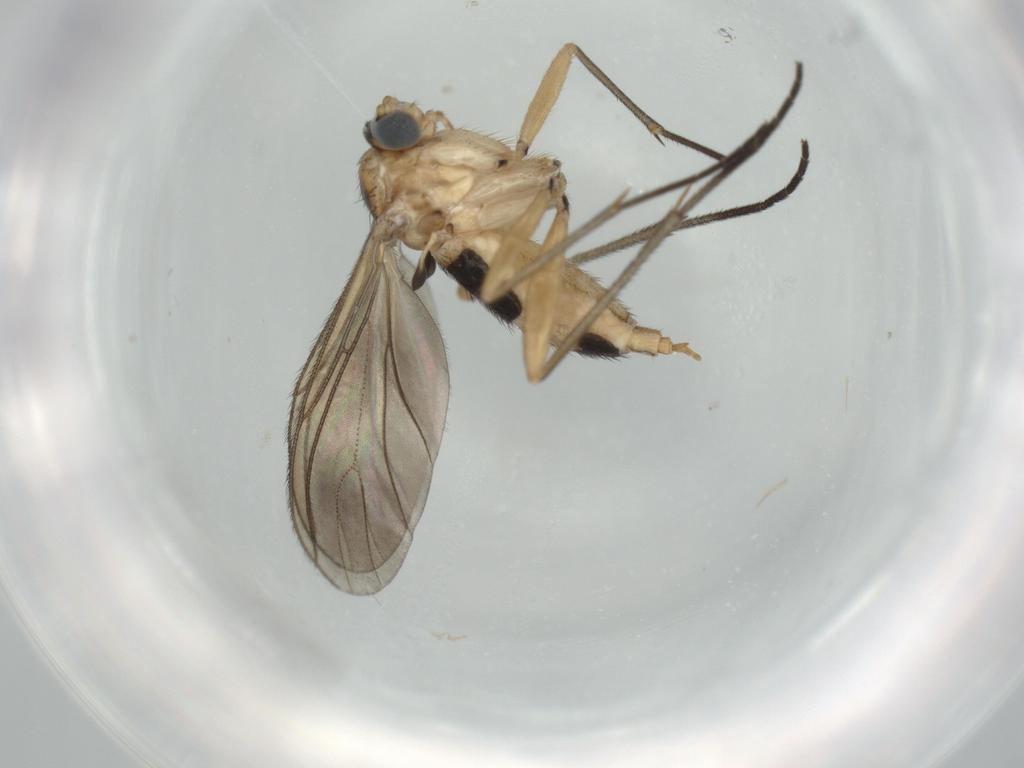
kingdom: Animalia
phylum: Arthropoda
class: Insecta
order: Diptera
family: Sciaridae
